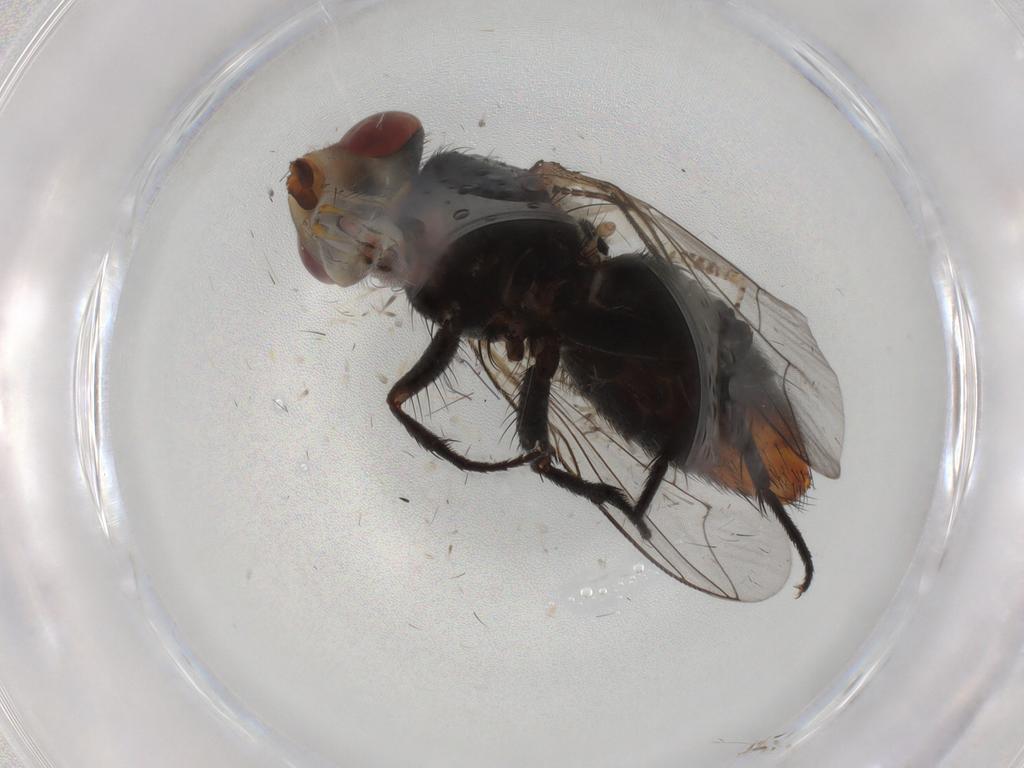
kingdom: Animalia
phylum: Arthropoda
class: Insecta
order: Diptera
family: Sarcophagidae
